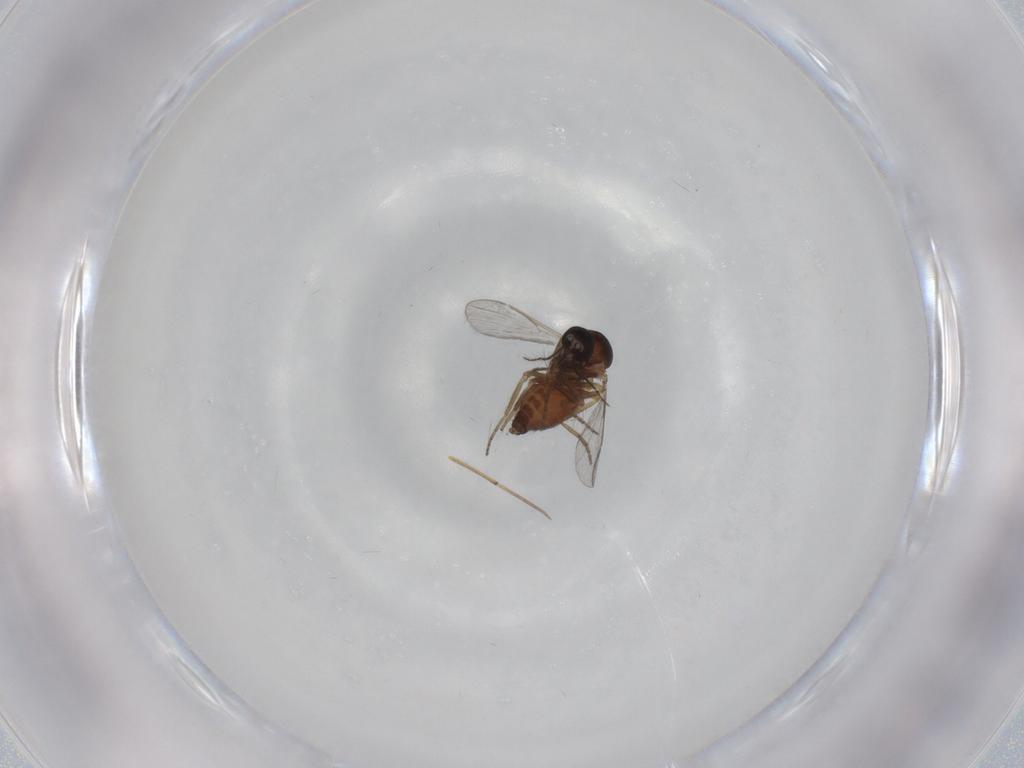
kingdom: Animalia
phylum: Arthropoda
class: Insecta
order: Diptera
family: Ceratopogonidae
